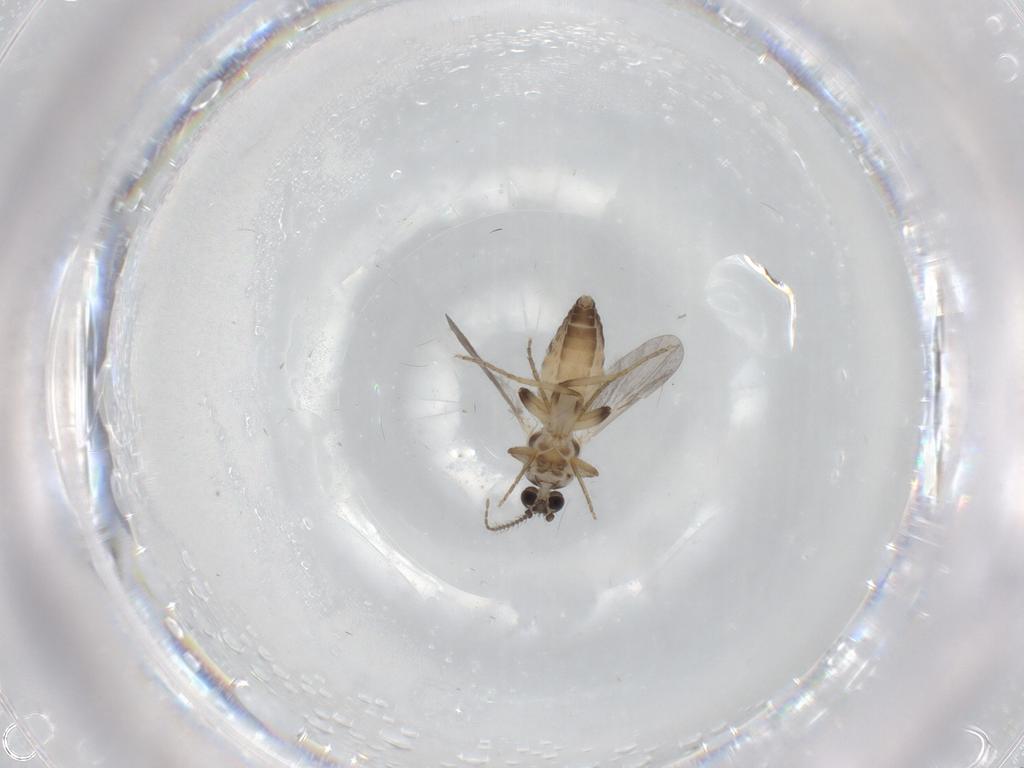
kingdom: Animalia
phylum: Arthropoda
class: Insecta
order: Diptera
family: Ceratopogonidae
